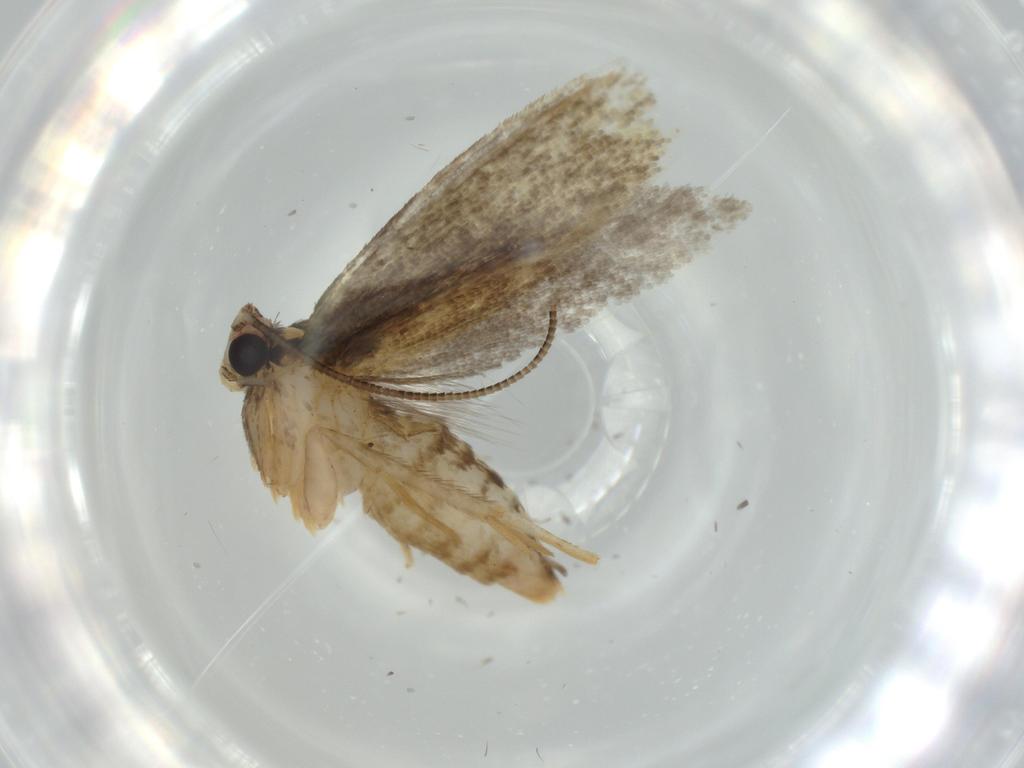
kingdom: Animalia
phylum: Arthropoda
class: Insecta
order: Lepidoptera
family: Tineidae
